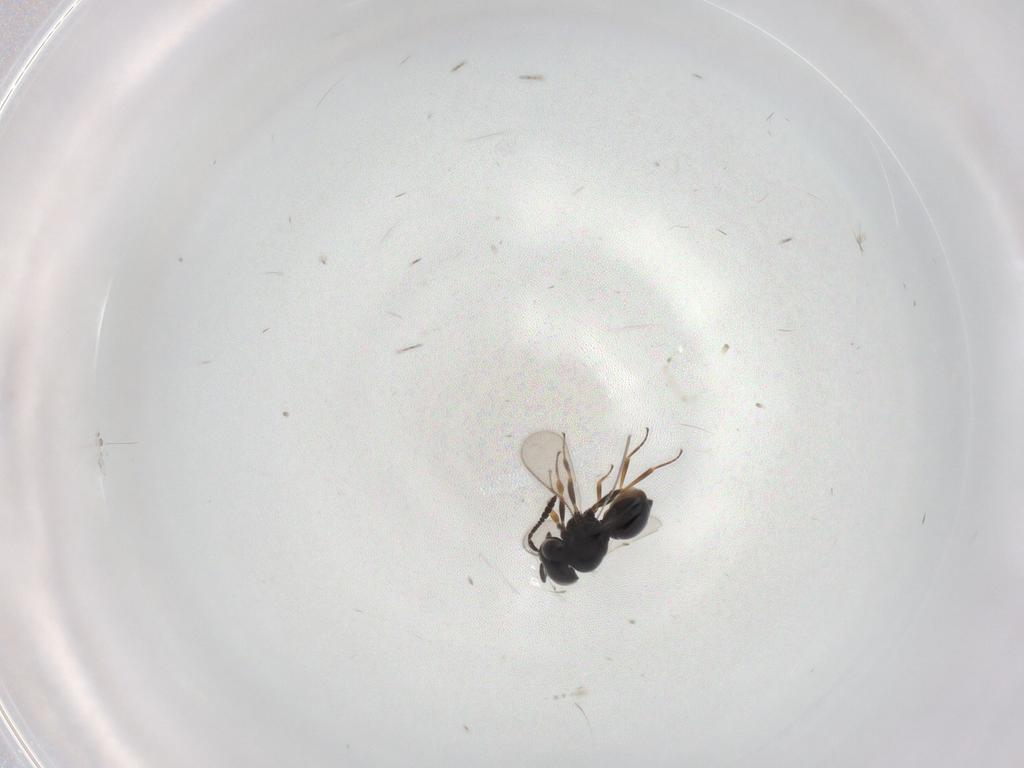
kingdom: Animalia
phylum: Arthropoda
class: Insecta
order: Hymenoptera
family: Scelionidae
